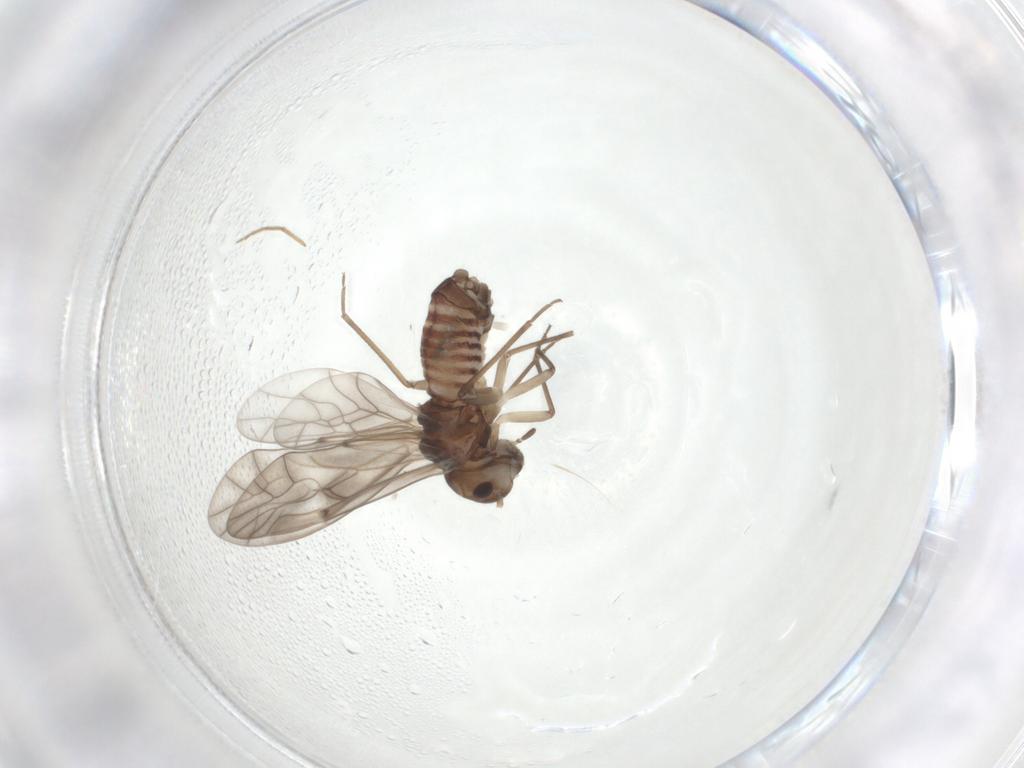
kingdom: Animalia
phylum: Arthropoda
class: Insecta
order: Psocodea
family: Peripsocidae
